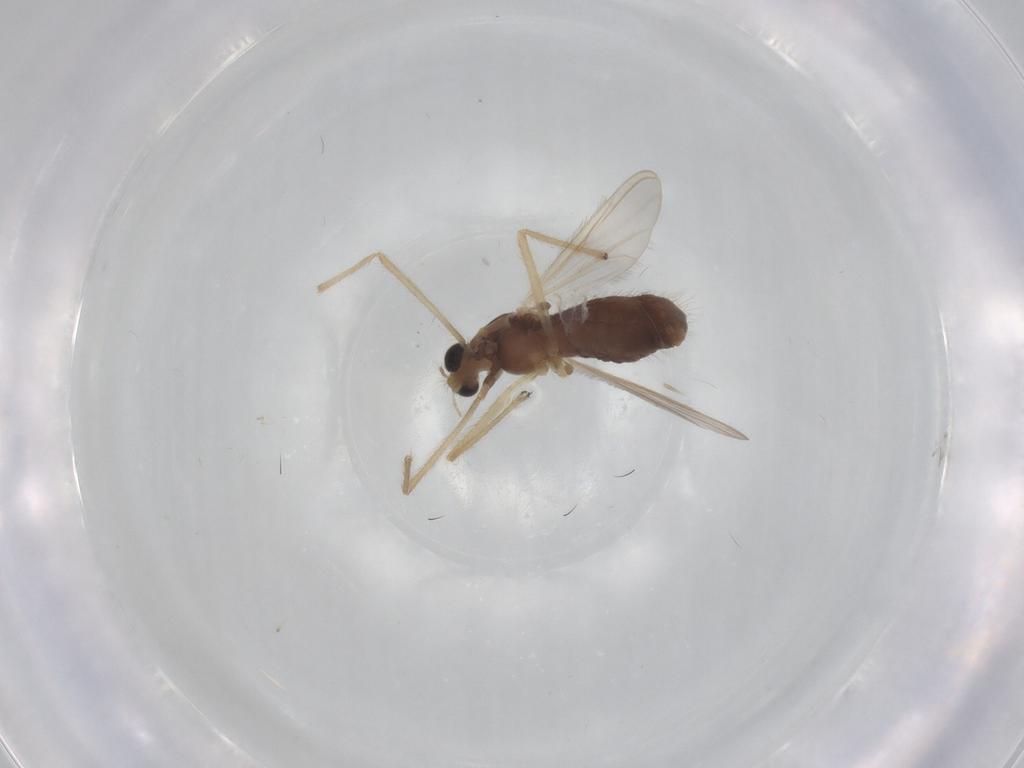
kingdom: Animalia
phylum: Arthropoda
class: Insecta
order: Diptera
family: Chironomidae
